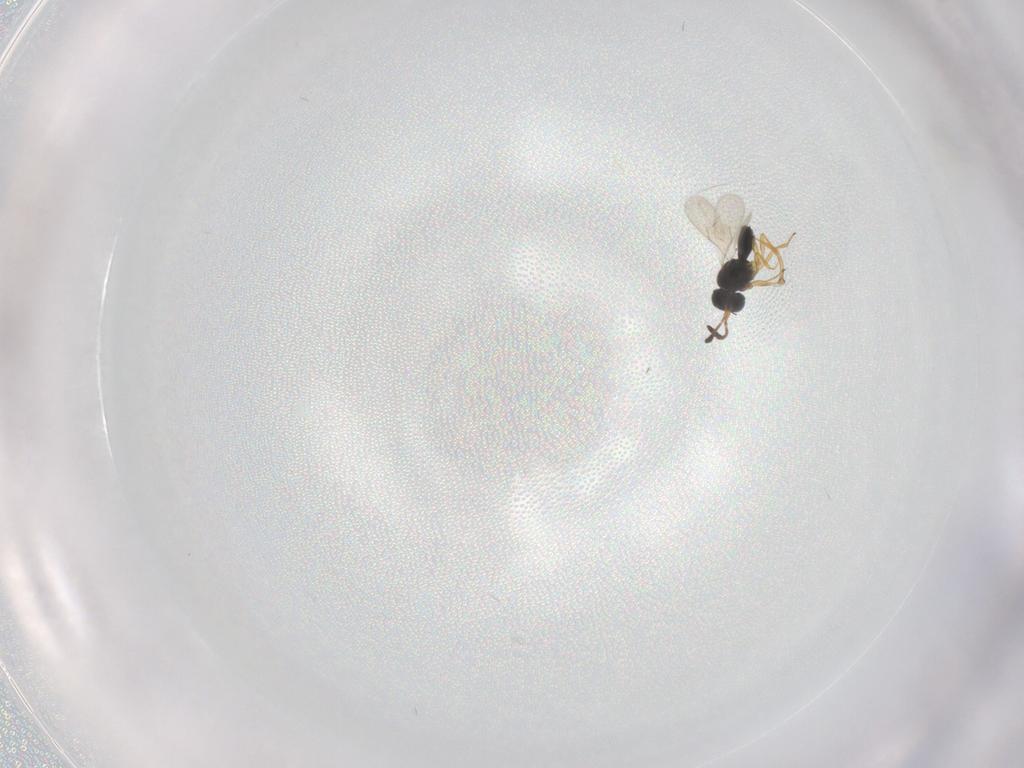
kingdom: Animalia
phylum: Arthropoda
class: Insecta
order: Hymenoptera
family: Scelionidae
